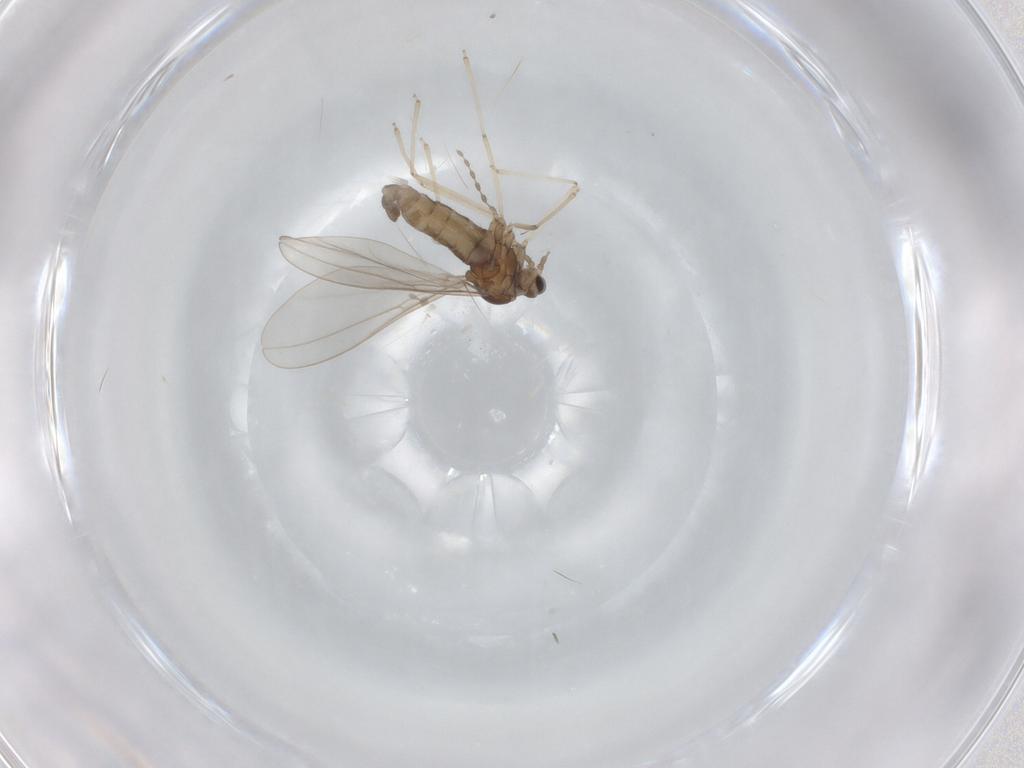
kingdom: Animalia
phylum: Arthropoda
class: Insecta
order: Diptera
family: Cecidomyiidae
